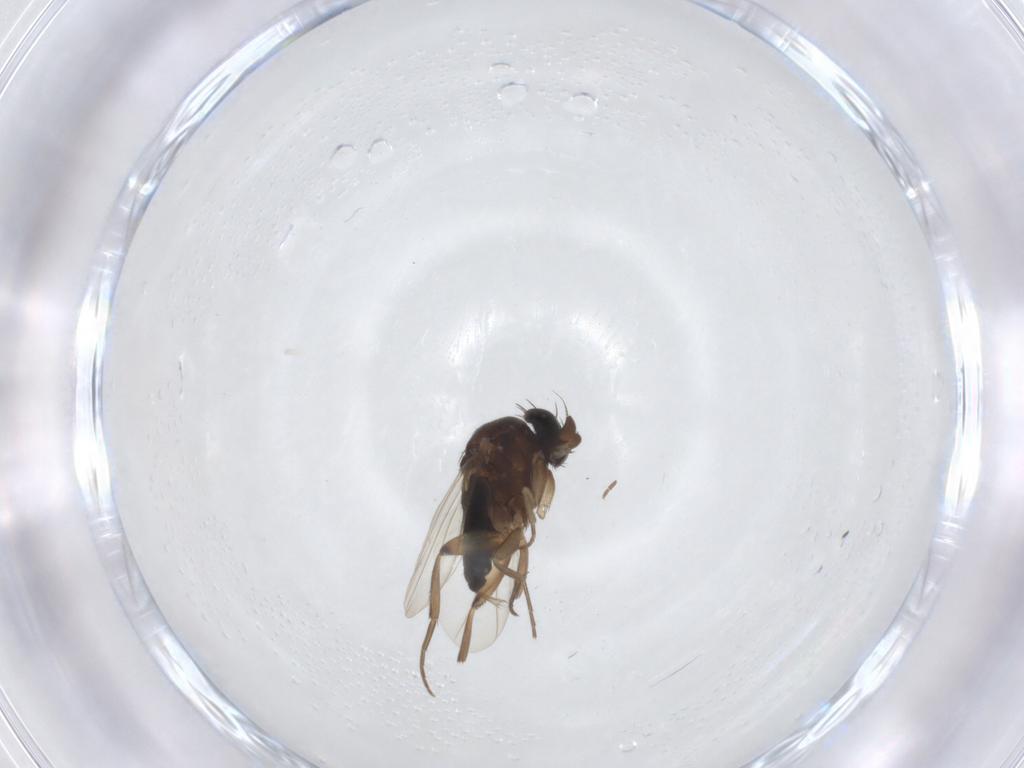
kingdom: Animalia
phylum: Arthropoda
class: Insecta
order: Diptera
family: Phoridae
